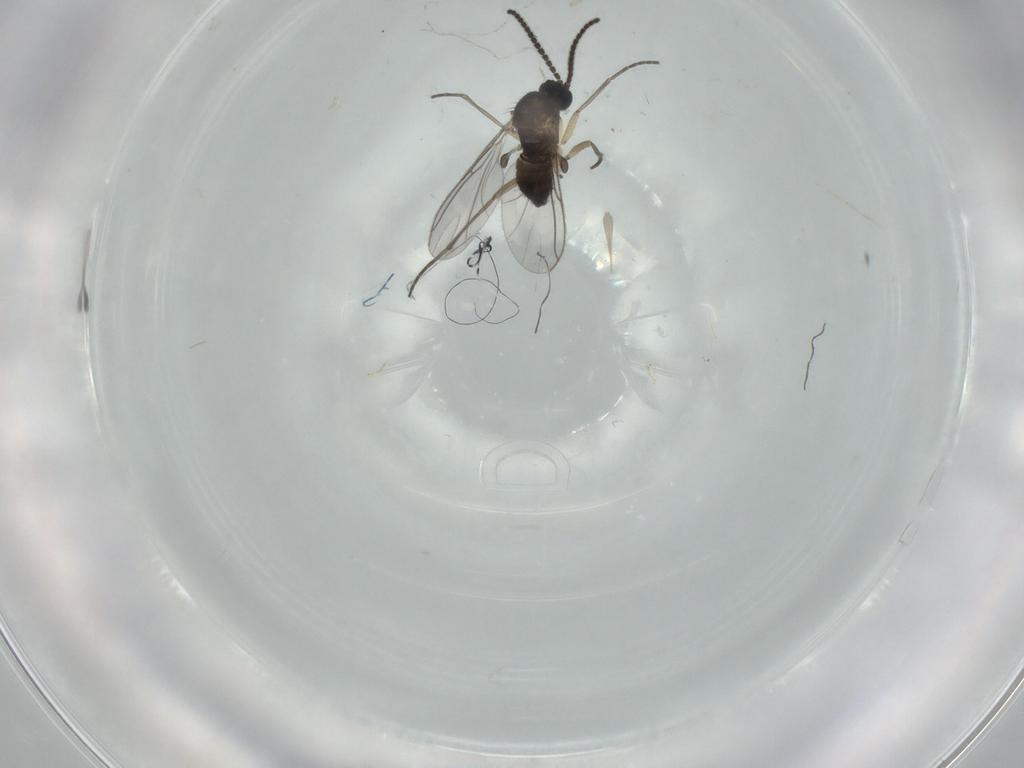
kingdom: Animalia
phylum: Arthropoda
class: Insecta
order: Diptera
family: Sciaridae
